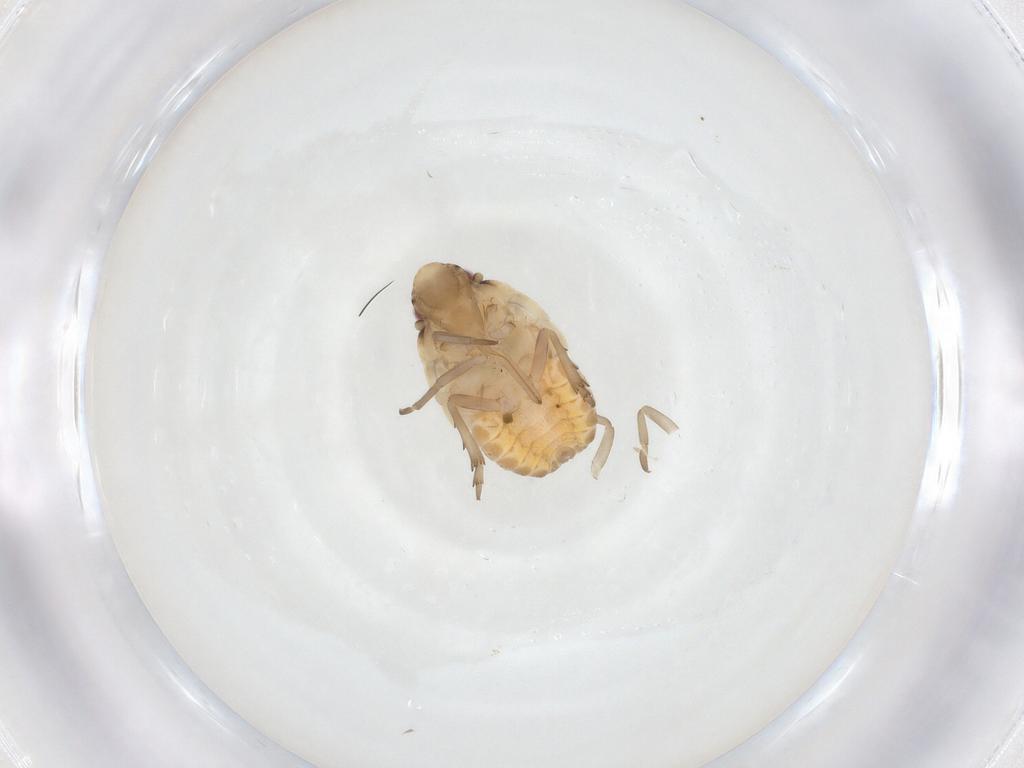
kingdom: Animalia
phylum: Arthropoda
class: Insecta
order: Hemiptera
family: Flatidae
